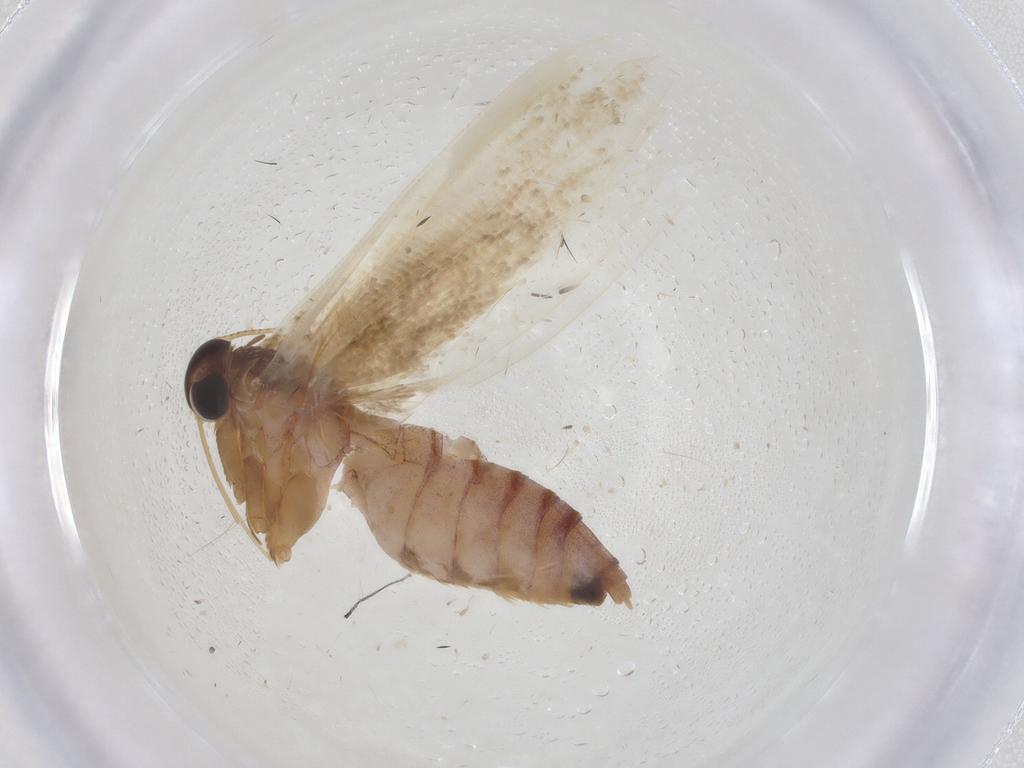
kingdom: Animalia
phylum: Arthropoda
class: Insecta
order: Lepidoptera
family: Blastobasidae
